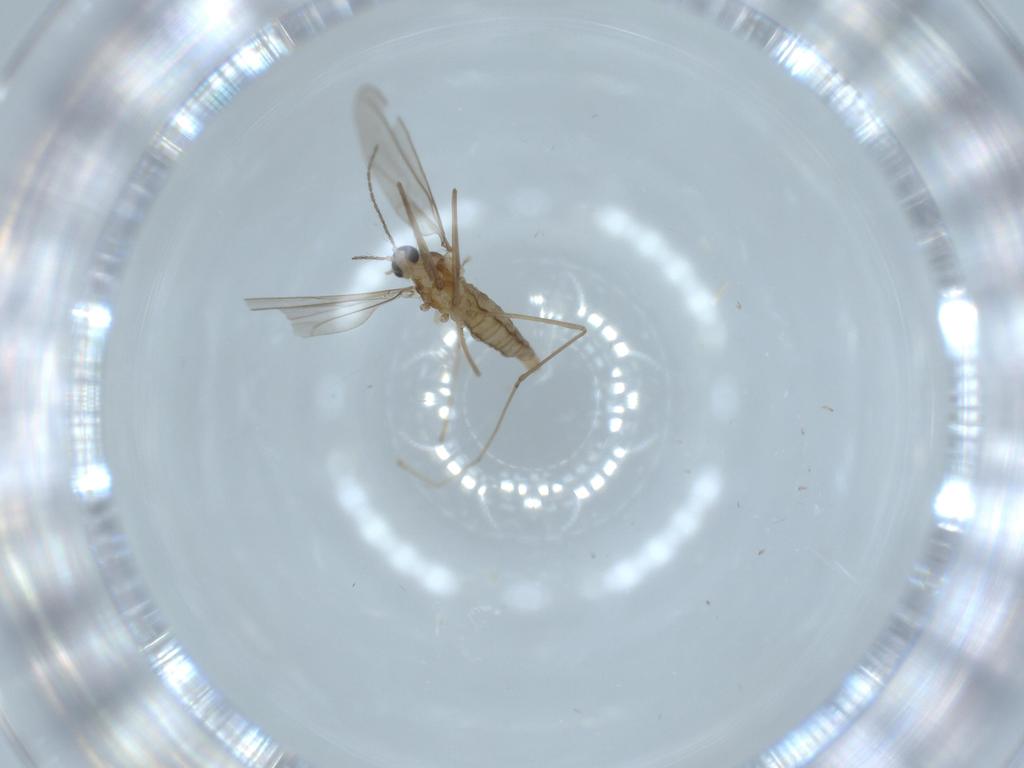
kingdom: Animalia
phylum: Arthropoda
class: Insecta
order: Diptera
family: Cecidomyiidae
